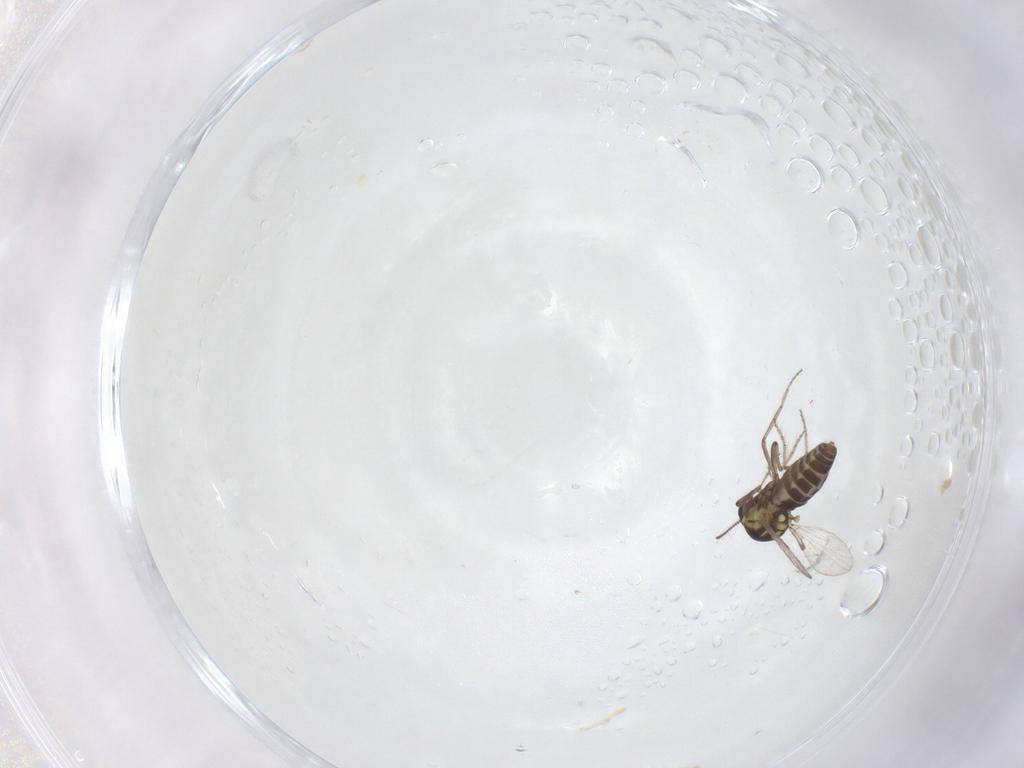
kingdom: Animalia
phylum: Arthropoda
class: Insecta
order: Diptera
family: Ceratopogonidae
